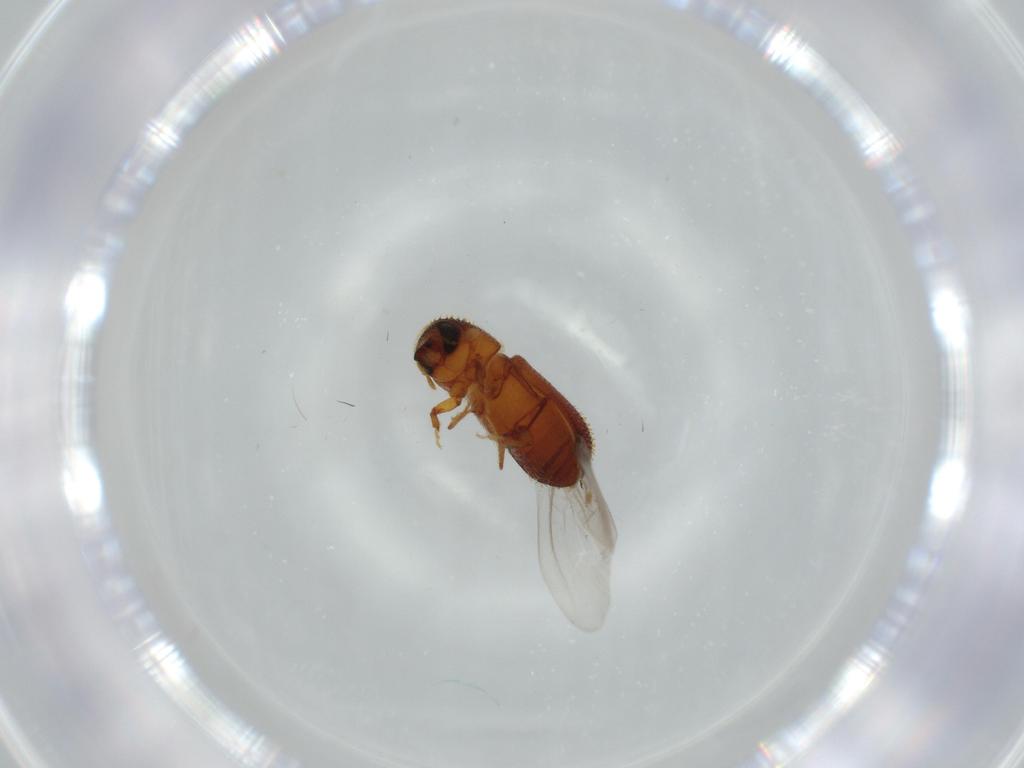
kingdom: Animalia
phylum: Arthropoda
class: Insecta
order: Coleoptera
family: Curculionidae
